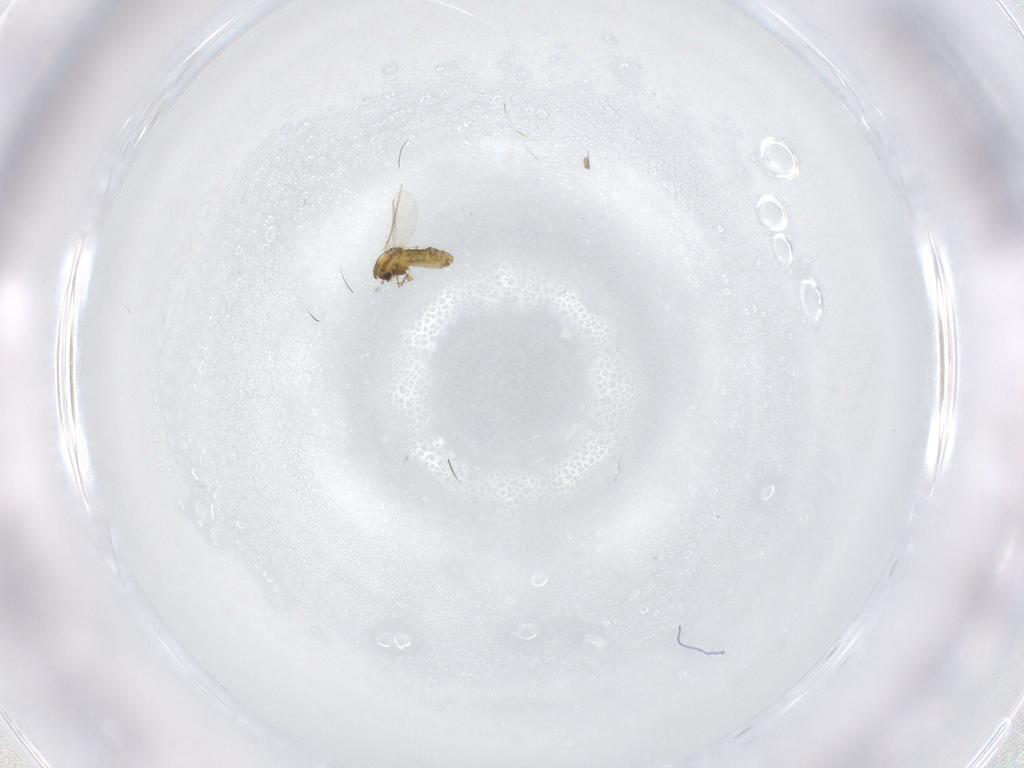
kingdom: Animalia
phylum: Arthropoda
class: Insecta
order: Diptera
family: Chironomidae
